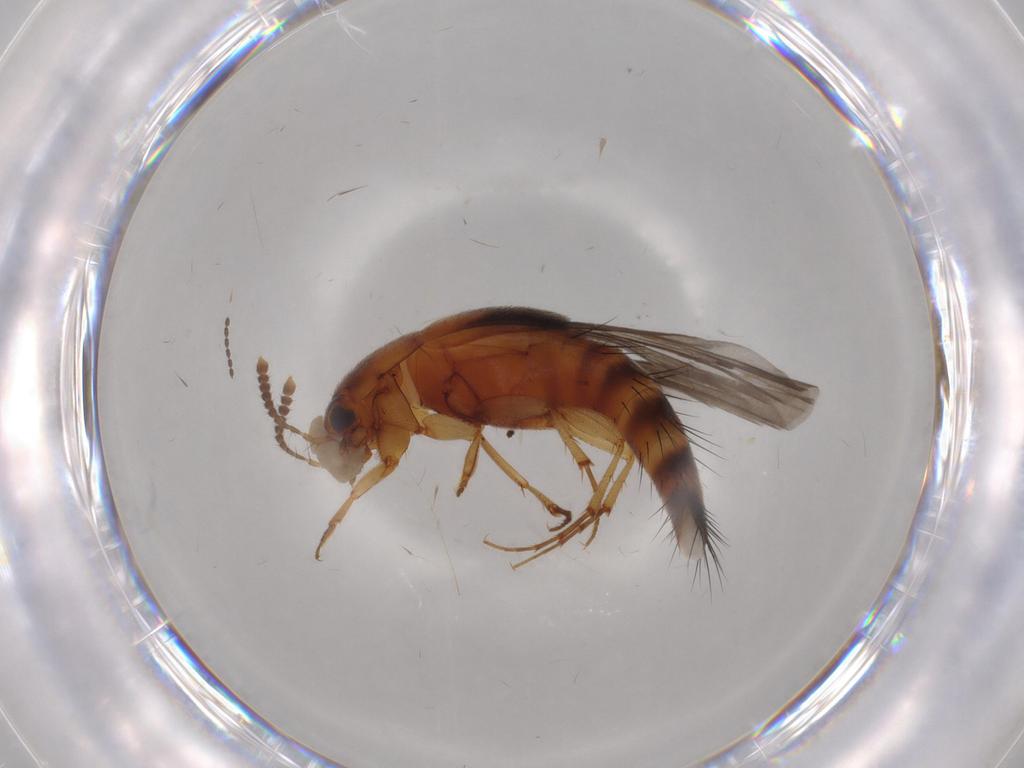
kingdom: Animalia
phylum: Arthropoda
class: Insecta
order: Coleoptera
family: Staphylinidae
